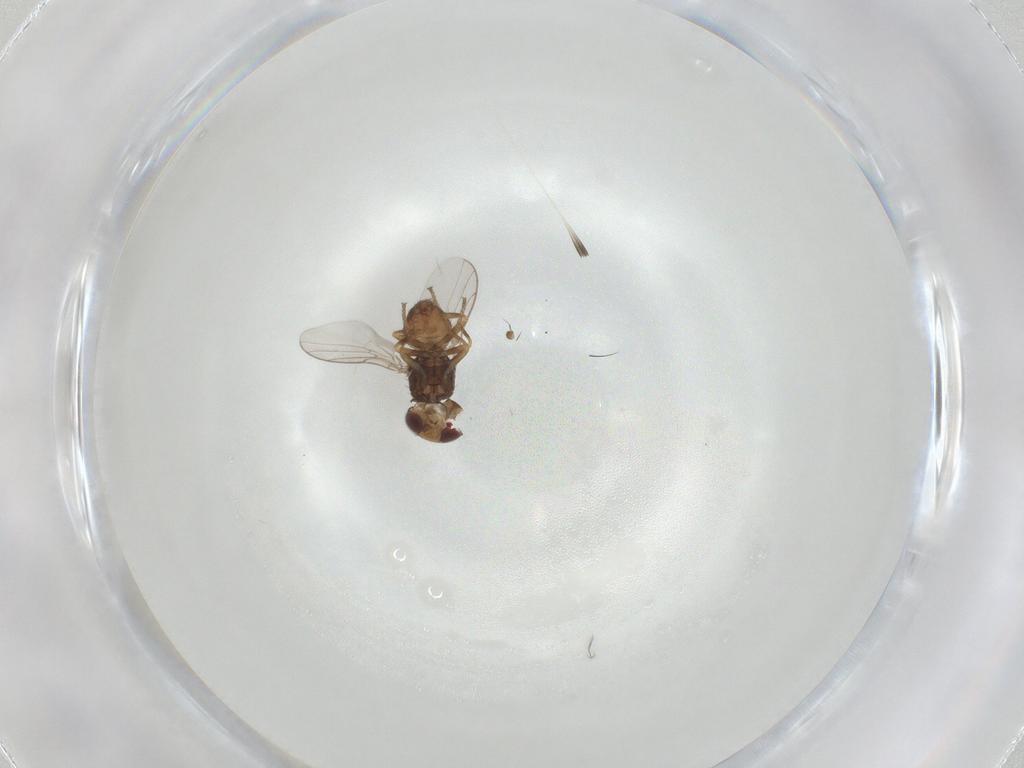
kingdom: Animalia
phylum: Arthropoda
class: Insecta
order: Diptera
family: Chloropidae
